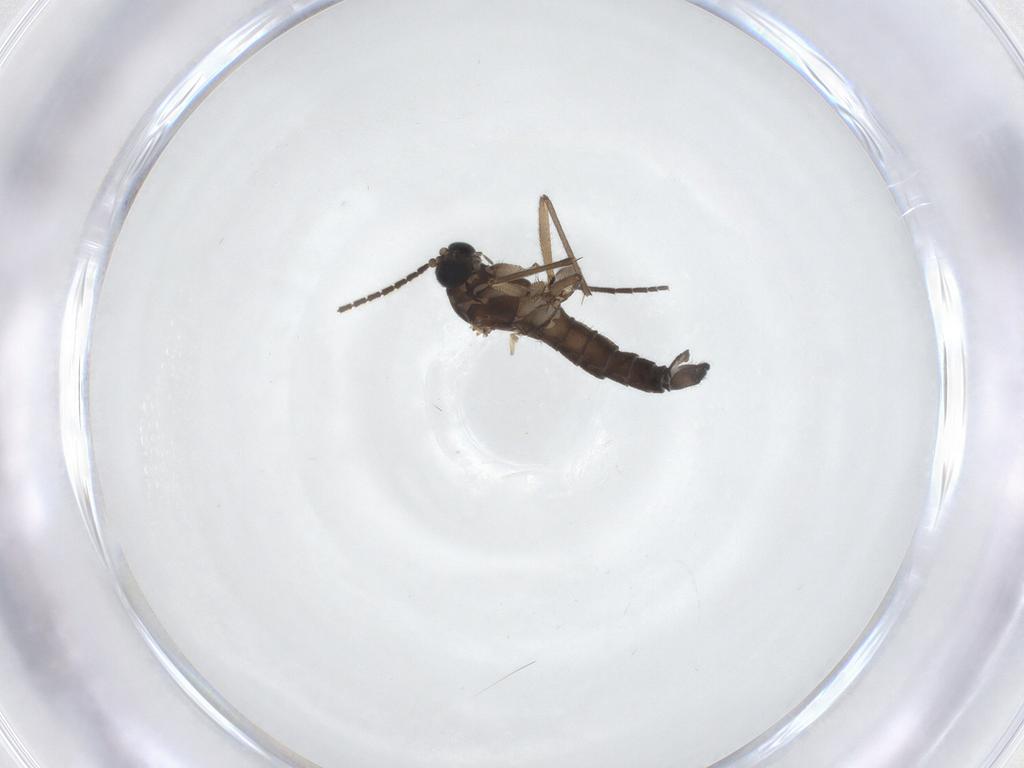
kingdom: Animalia
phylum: Arthropoda
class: Insecta
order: Diptera
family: Sciaridae
